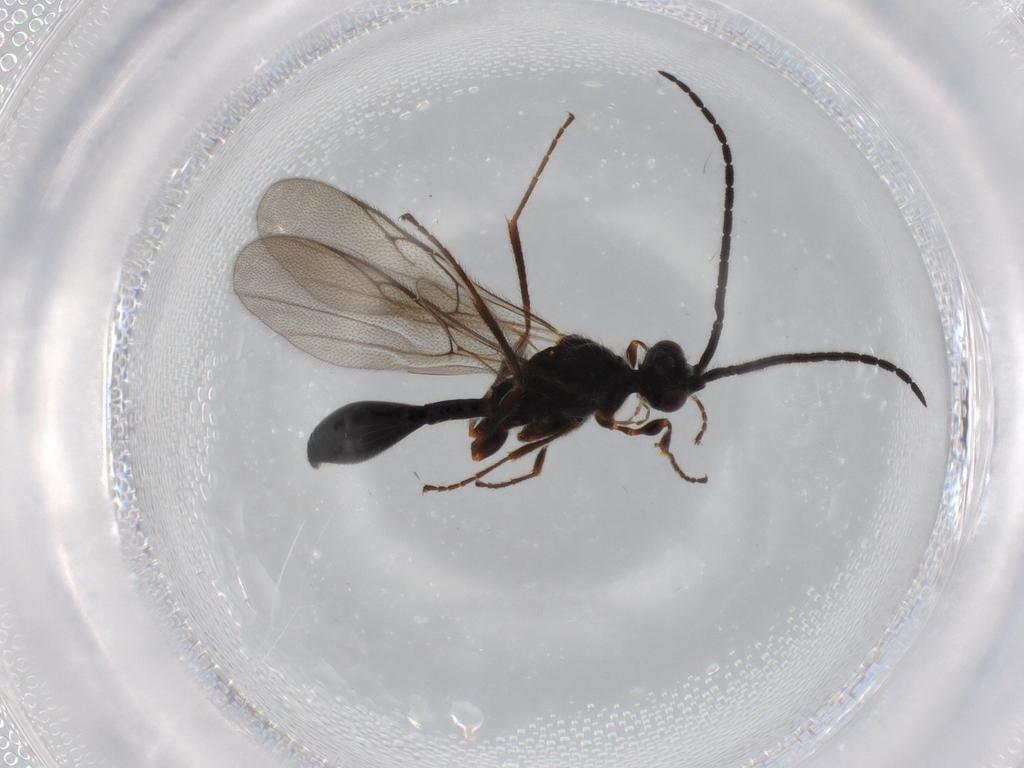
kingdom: Animalia
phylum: Arthropoda
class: Insecta
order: Hymenoptera
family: Diapriidae
